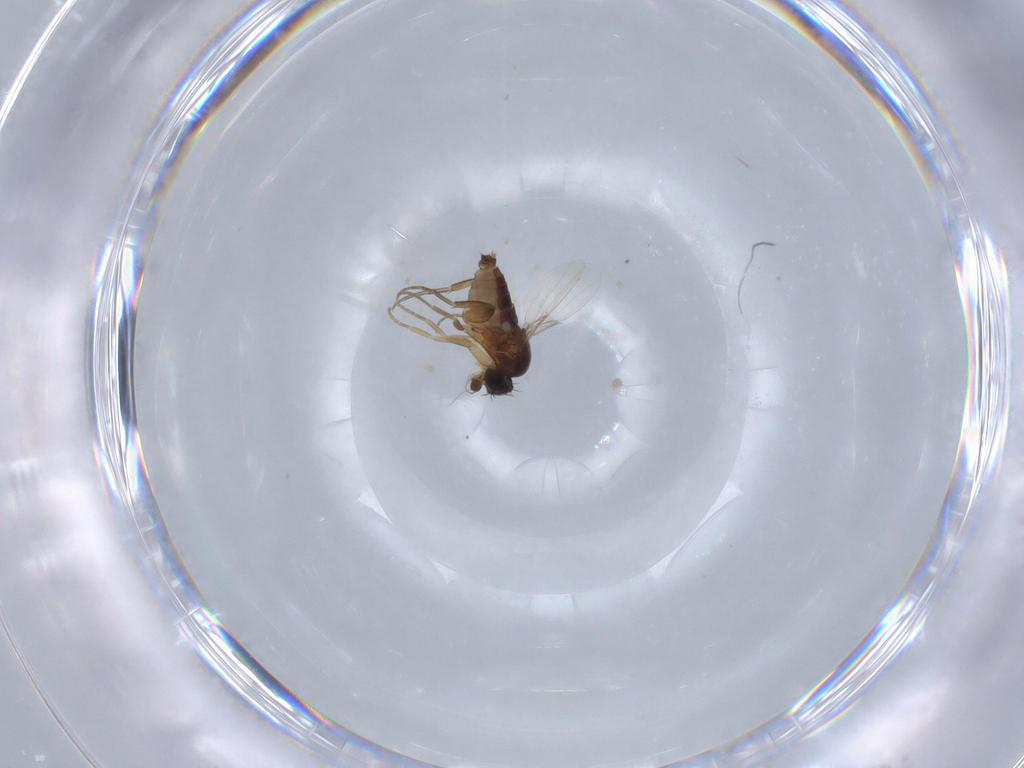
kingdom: Animalia
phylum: Arthropoda
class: Insecta
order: Diptera
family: Phoridae
